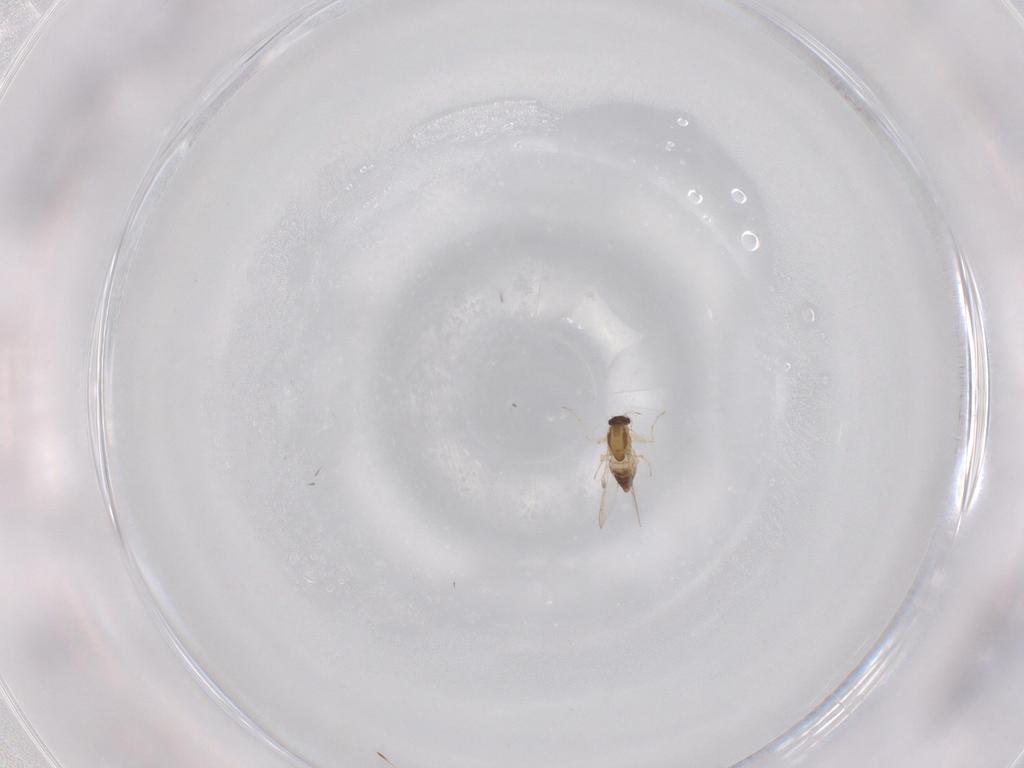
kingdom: Animalia
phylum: Arthropoda
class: Insecta
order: Diptera
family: Chironomidae
